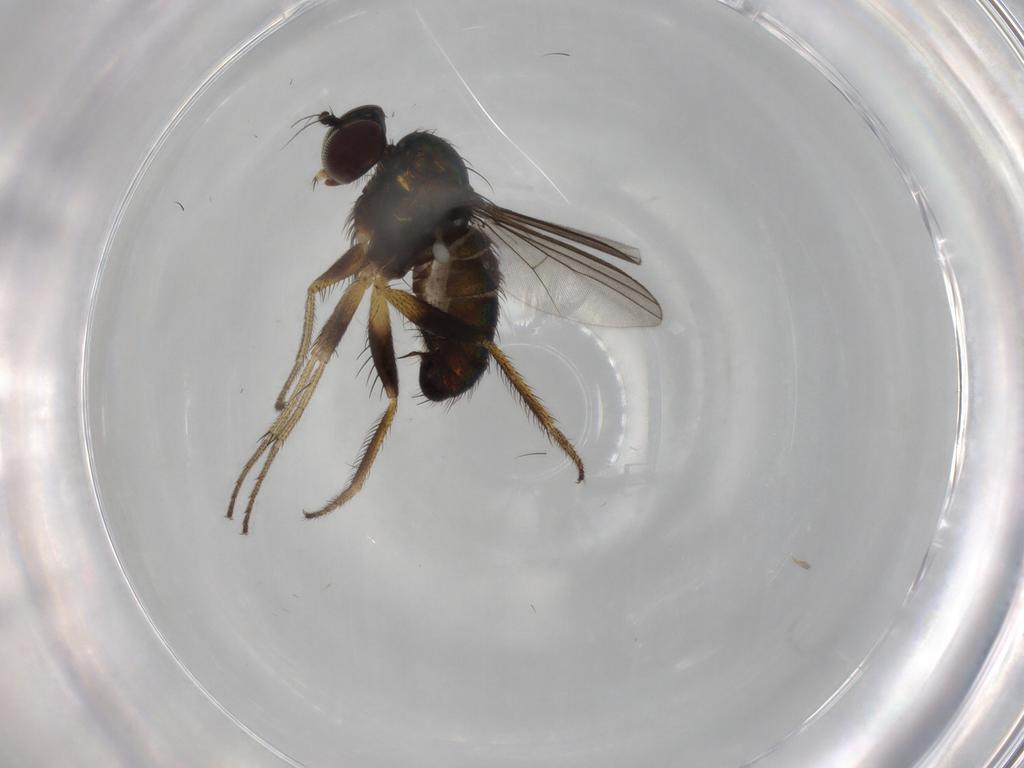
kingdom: Animalia
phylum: Arthropoda
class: Insecta
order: Diptera
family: Dolichopodidae
